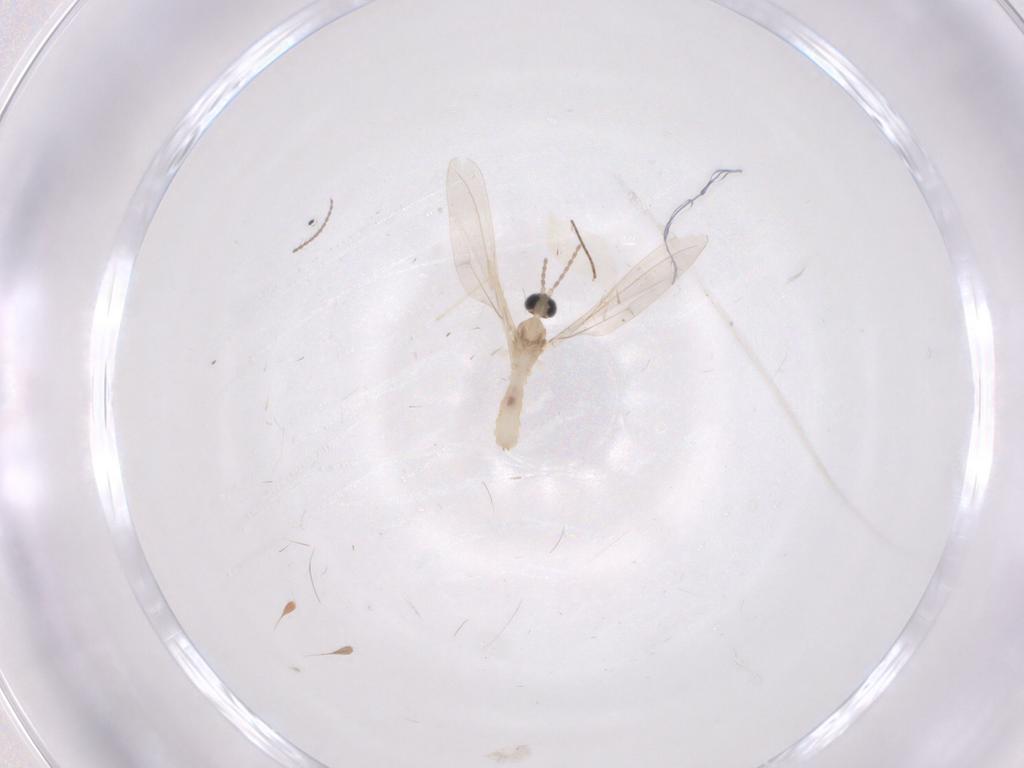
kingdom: Animalia
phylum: Arthropoda
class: Insecta
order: Diptera
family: Cecidomyiidae
